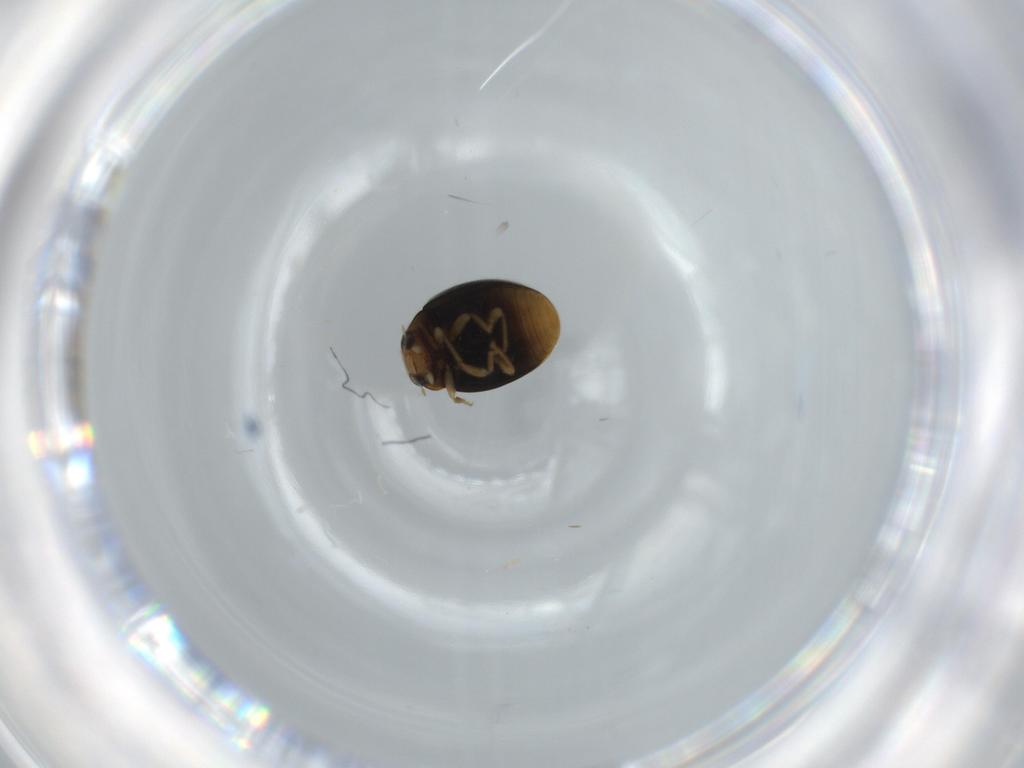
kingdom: Animalia
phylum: Arthropoda
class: Insecta
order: Coleoptera
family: Coccinellidae
